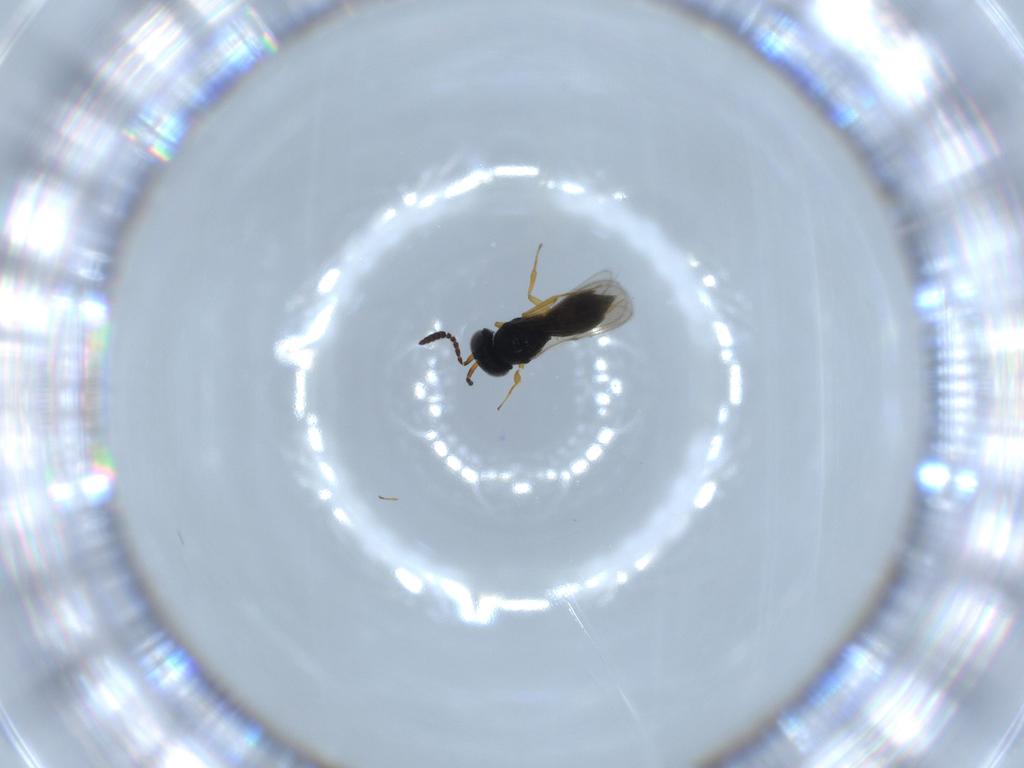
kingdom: Animalia
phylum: Arthropoda
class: Insecta
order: Hymenoptera
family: Scelionidae
